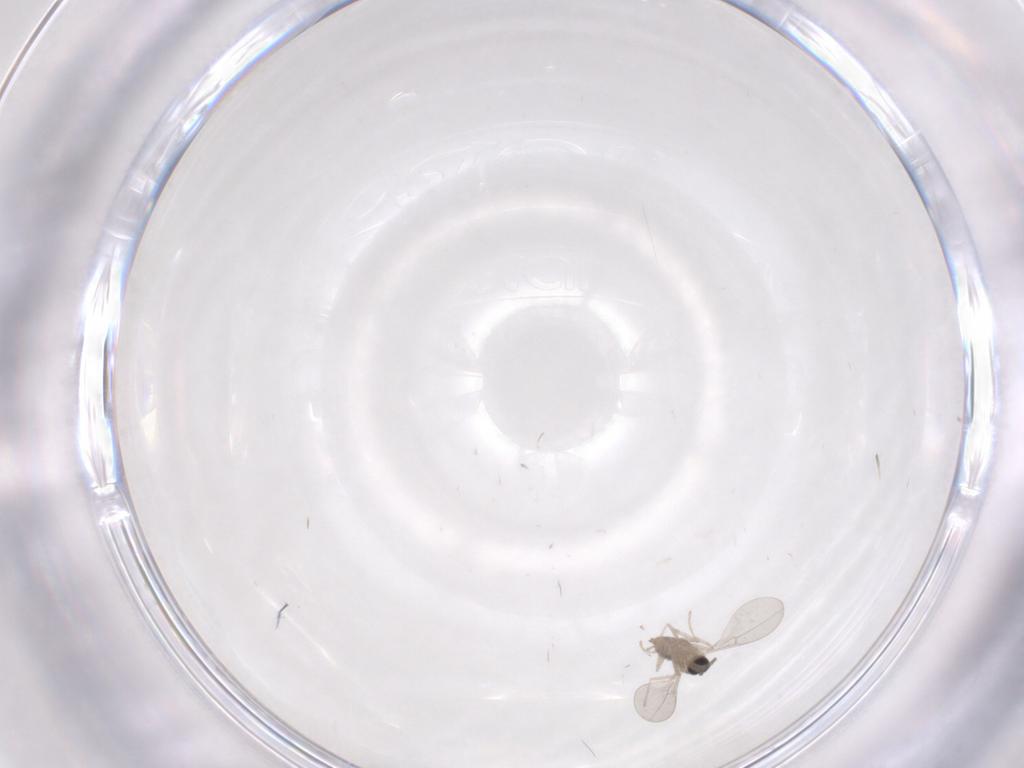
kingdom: Animalia
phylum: Arthropoda
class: Insecta
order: Diptera
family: Cecidomyiidae
